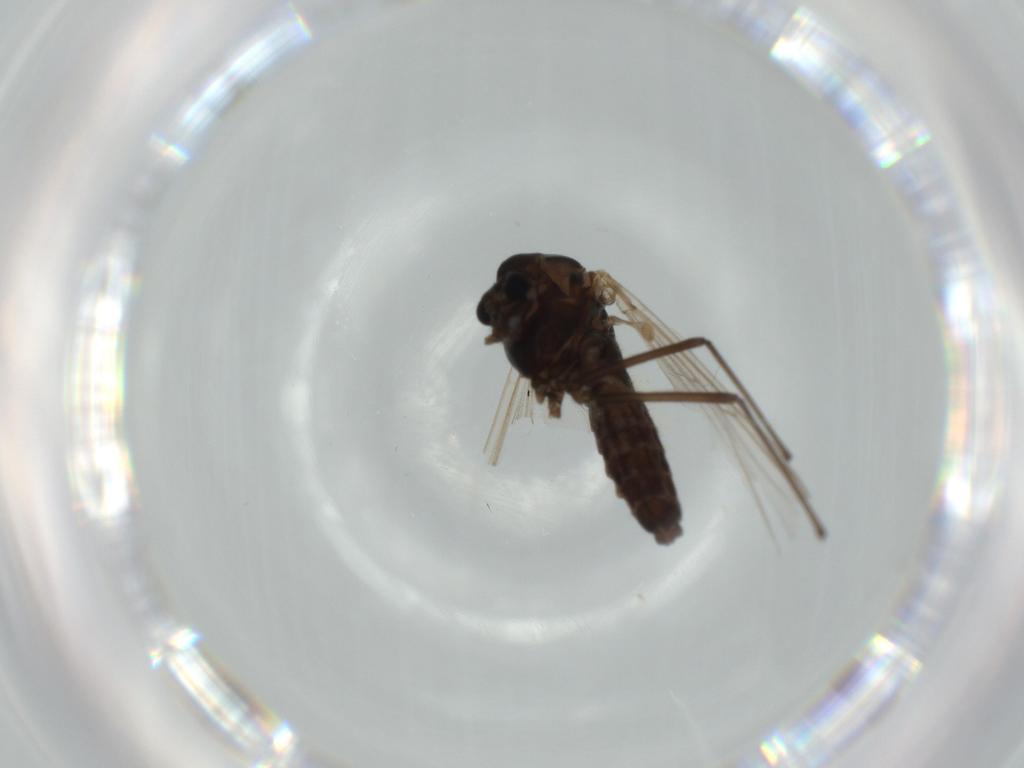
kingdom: Animalia
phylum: Arthropoda
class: Insecta
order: Diptera
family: Chironomidae
